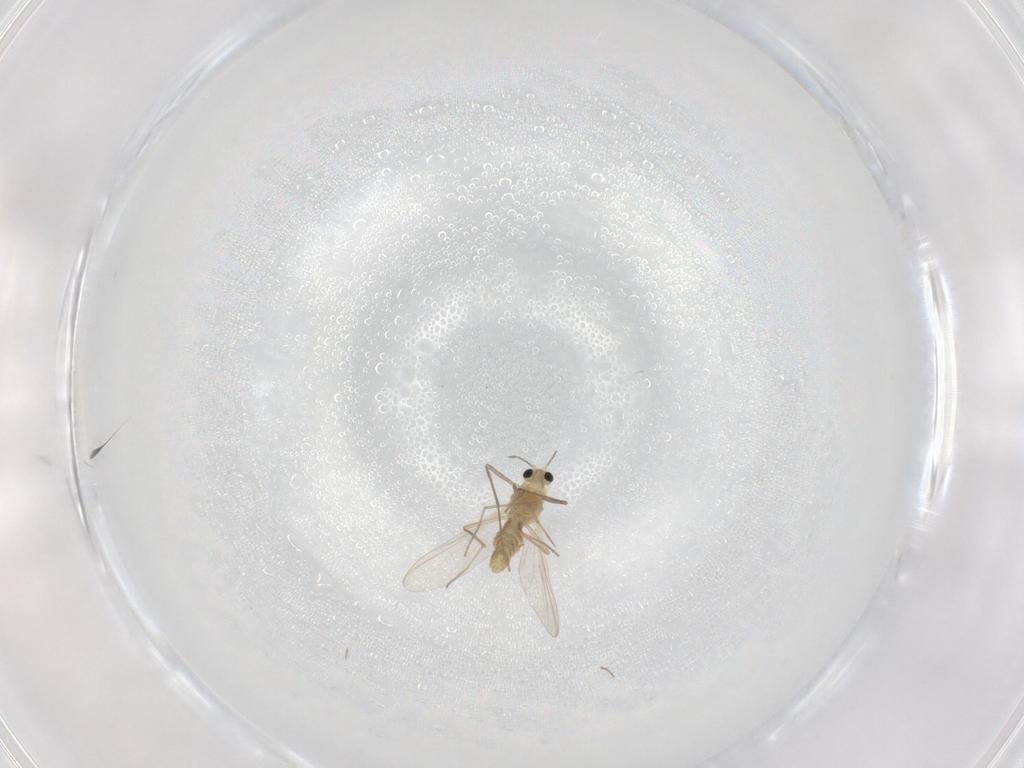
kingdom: Animalia
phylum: Arthropoda
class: Insecta
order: Diptera
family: Chironomidae
